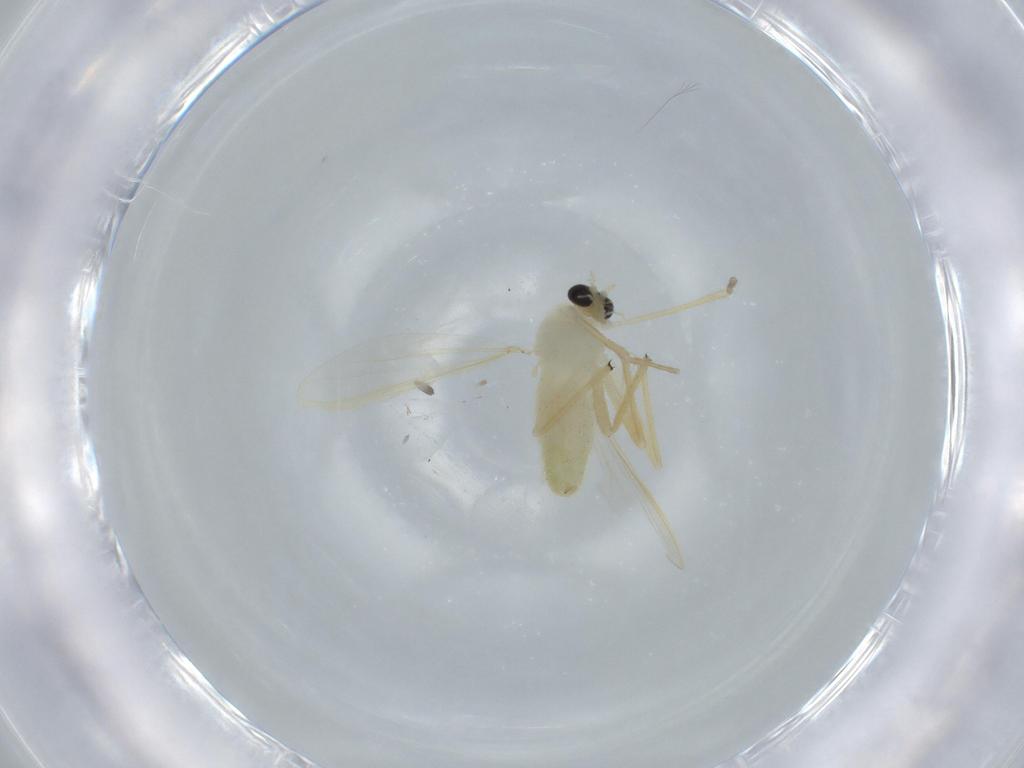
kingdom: Animalia
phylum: Arthropoda
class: Insecta
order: Diptera
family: Chironomidae
